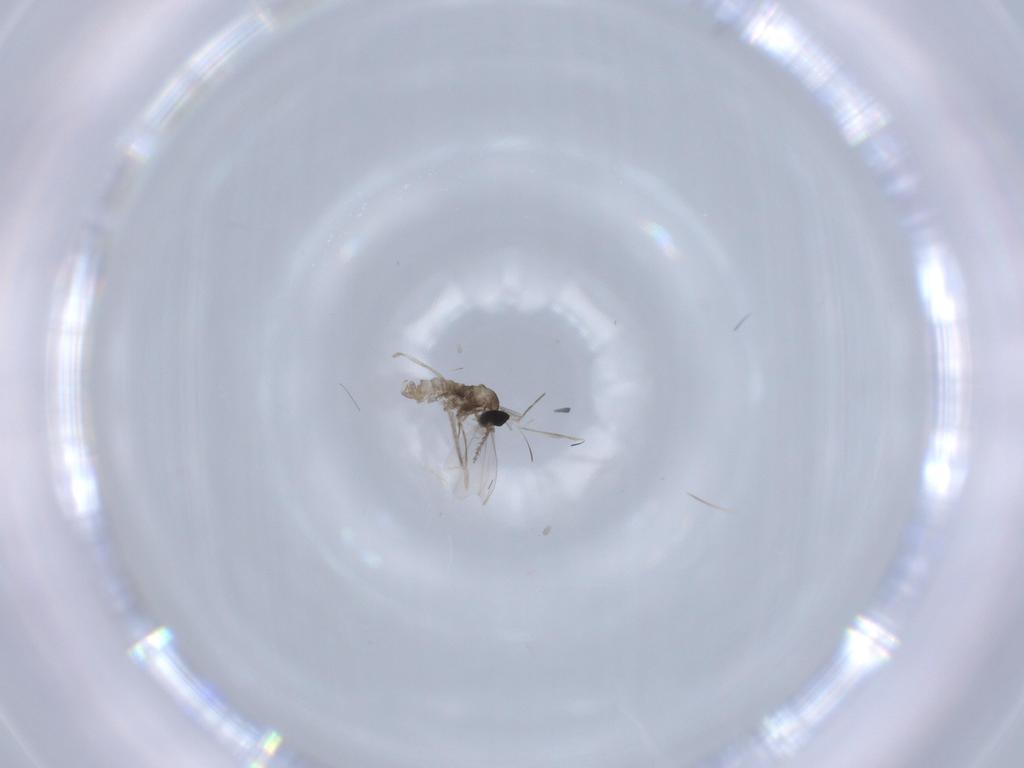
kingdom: Animalia
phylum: Arthropoda
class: Insecta
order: Diptera
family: Cecidomyiidae
